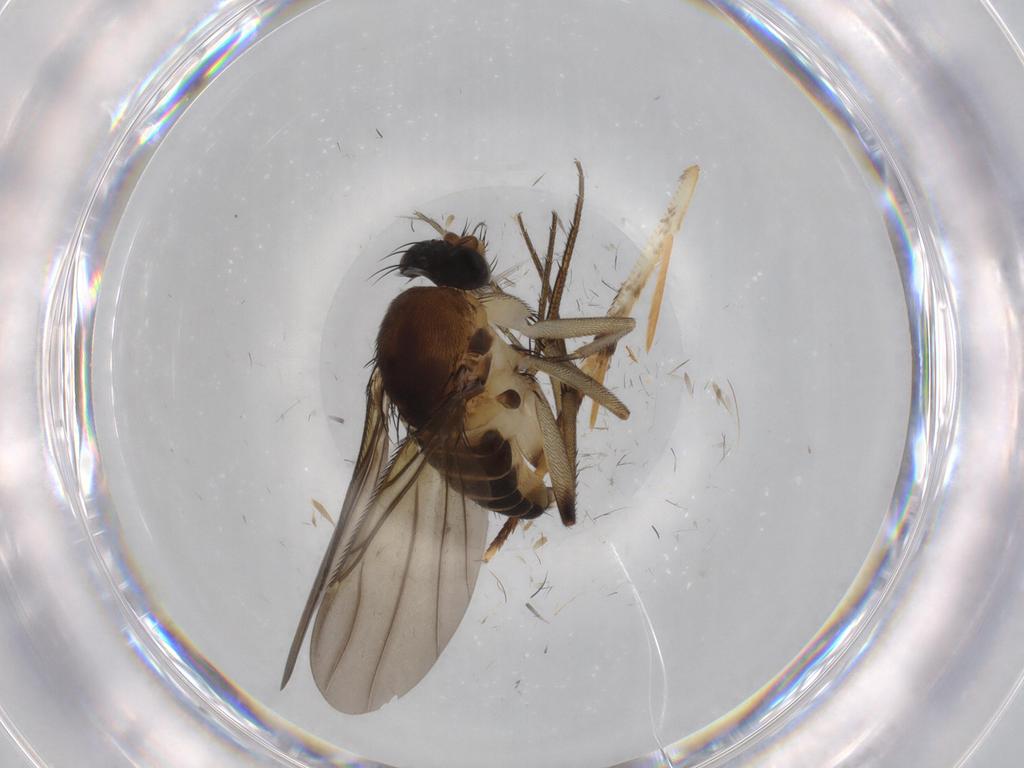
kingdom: Animalia
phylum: Arthropoda
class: Insecta
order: Diptera
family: Phoridae
